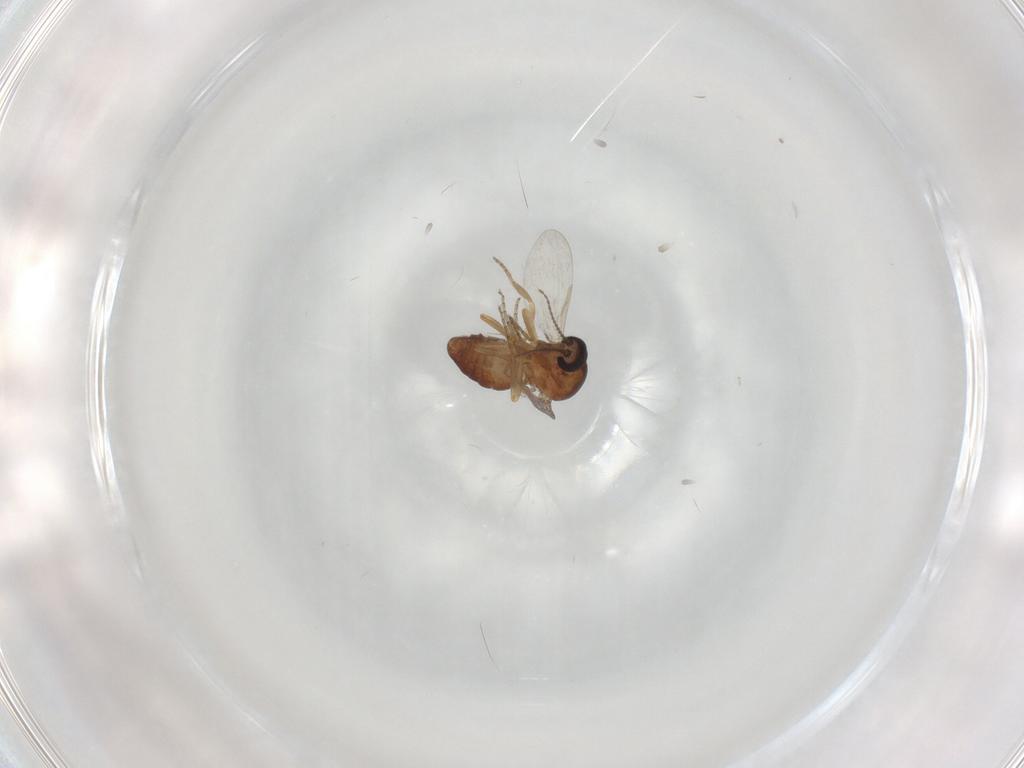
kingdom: Animalia
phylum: Arthropoda
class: Insecta
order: Diptera
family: Ceratopogonidae
